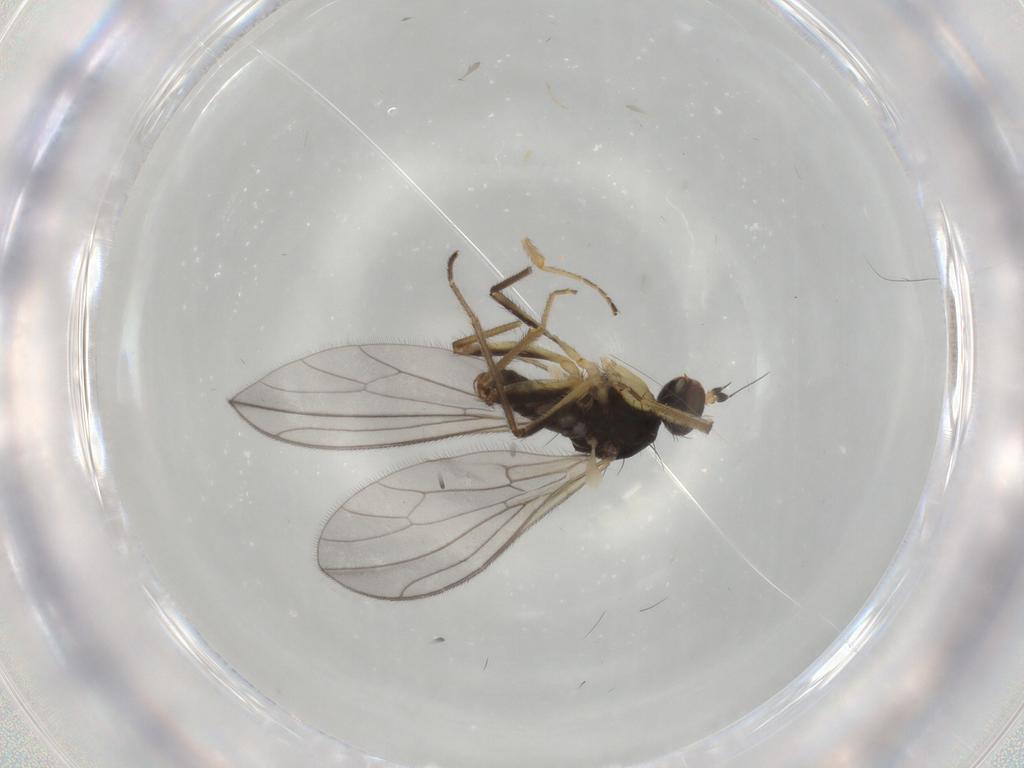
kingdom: Animalia
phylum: Arthropoda
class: Insecta
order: Diptera
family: Empididae
